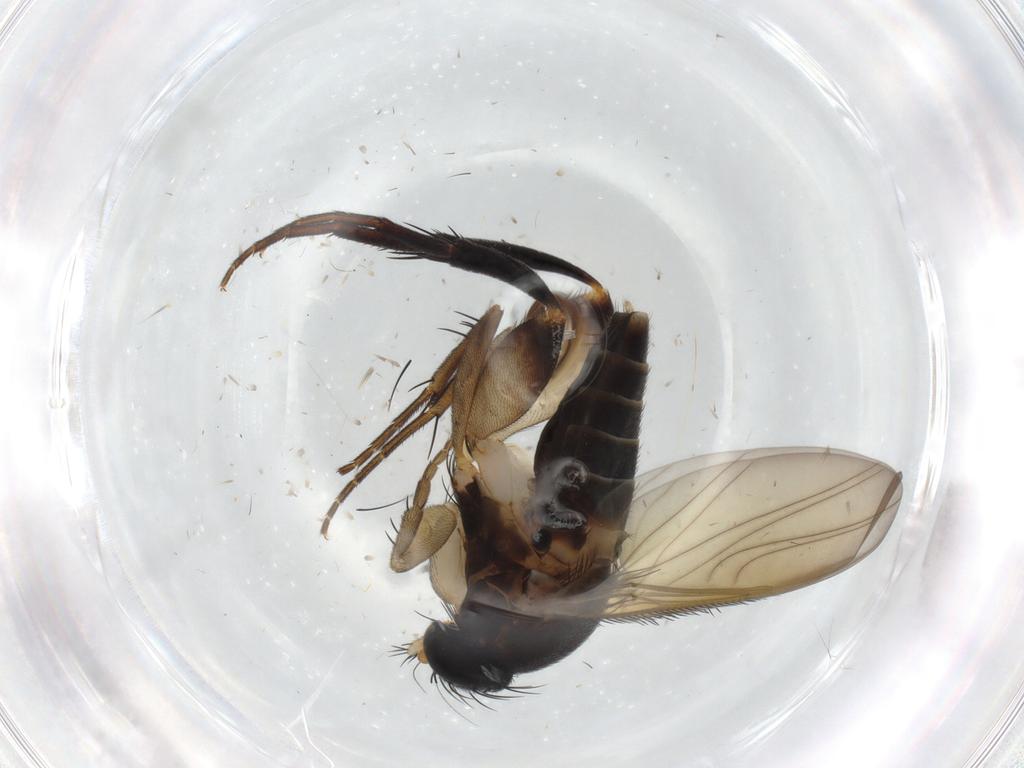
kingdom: Animalia
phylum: Arthropoda
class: Insecta
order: Diptera
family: Phoridae
